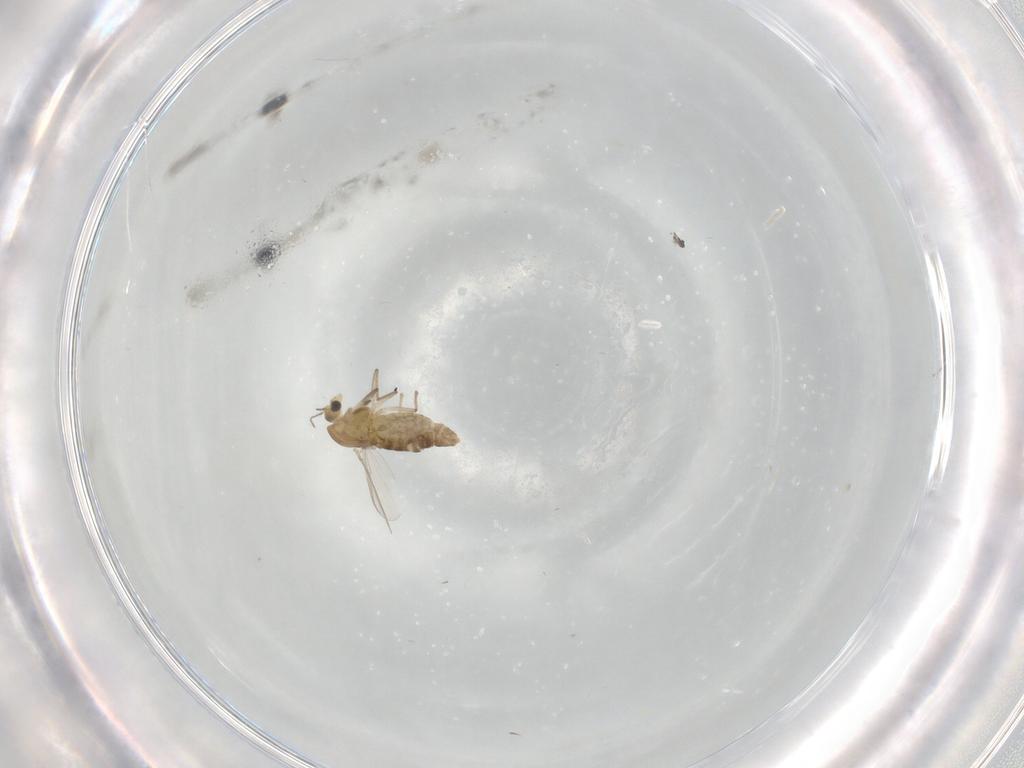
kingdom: Animalia
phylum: Arthropoda
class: Insecta
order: Diptera
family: Chironomidae
